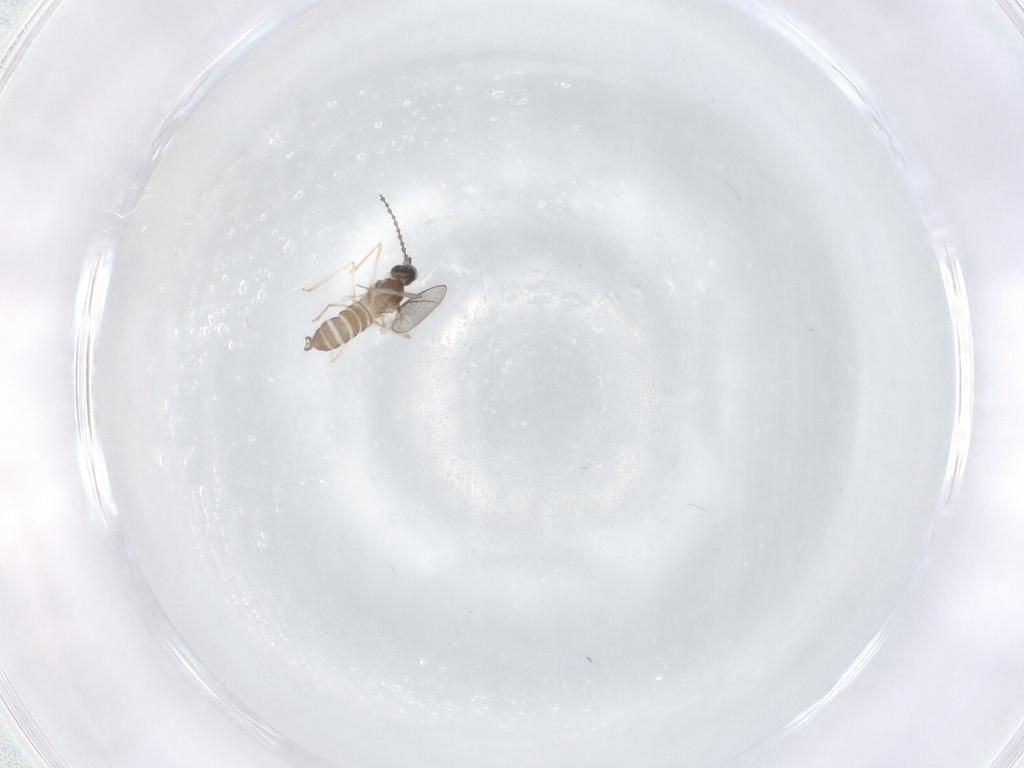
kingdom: Animalia
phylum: Arthropoda
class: Insecta
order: Diptera
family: Cecidomyiidae
